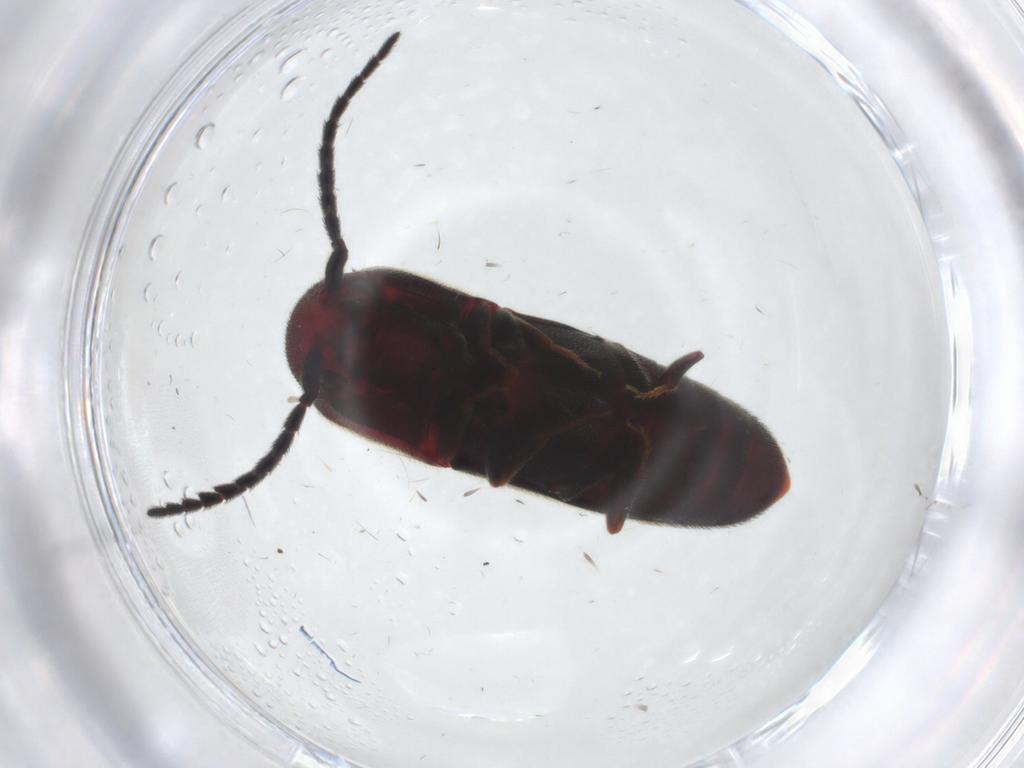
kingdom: Animalia
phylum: Arthropoda
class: Insecta
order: Coleoptera
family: Eucnemidae
